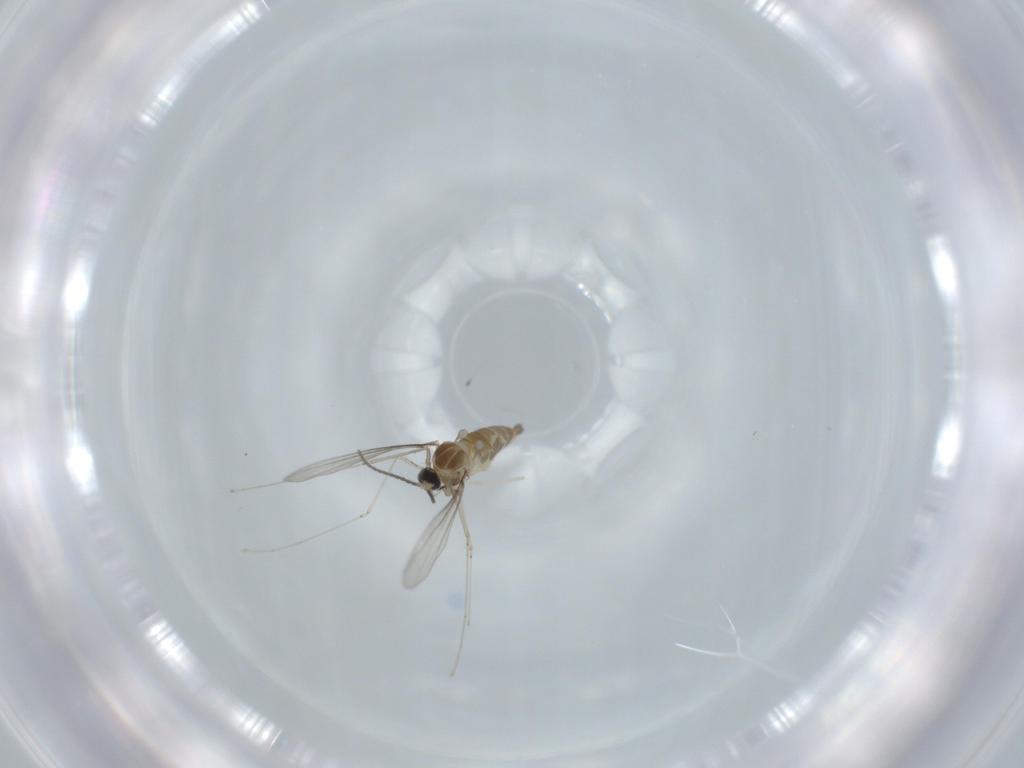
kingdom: Animalia
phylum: Arthropoda
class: Insecta
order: Diptera
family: Cecidomyiidae
